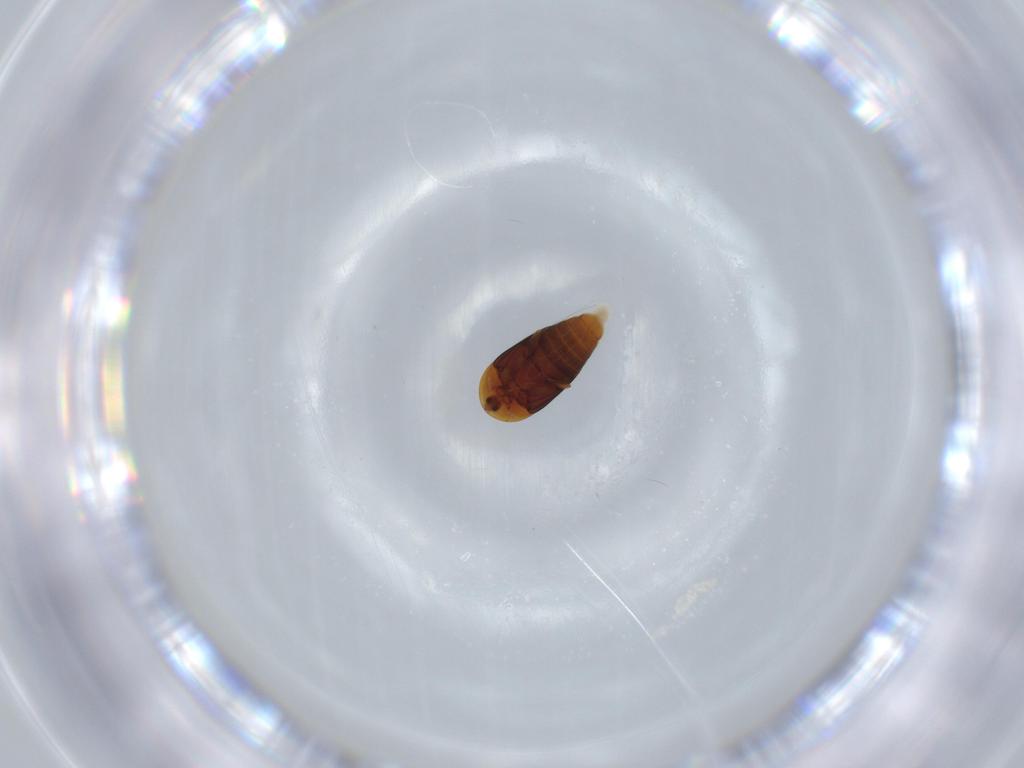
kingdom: Animalia
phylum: Arthropoda
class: Insecta
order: Coleoptera
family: Corylophidae
